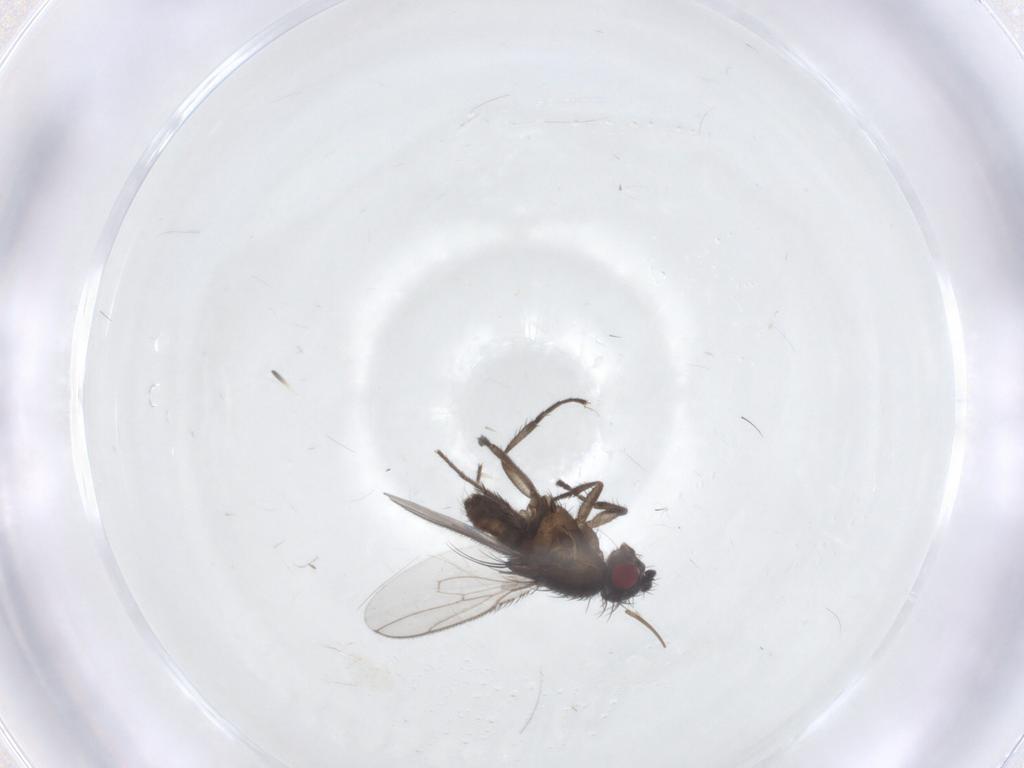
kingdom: Animalia
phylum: Arthropoda
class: Insecta
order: Diptera
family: Sphaeroceridae
